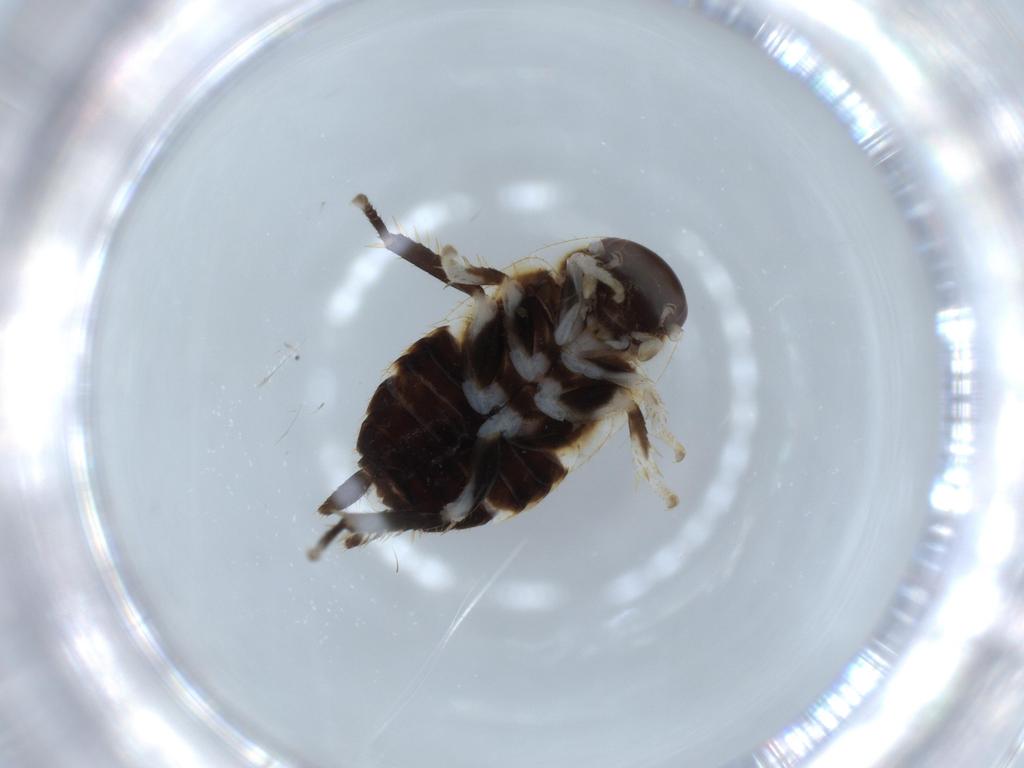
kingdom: Animalia
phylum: Arthropoda
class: Insecta
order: Blattodea
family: Ectobiidae
